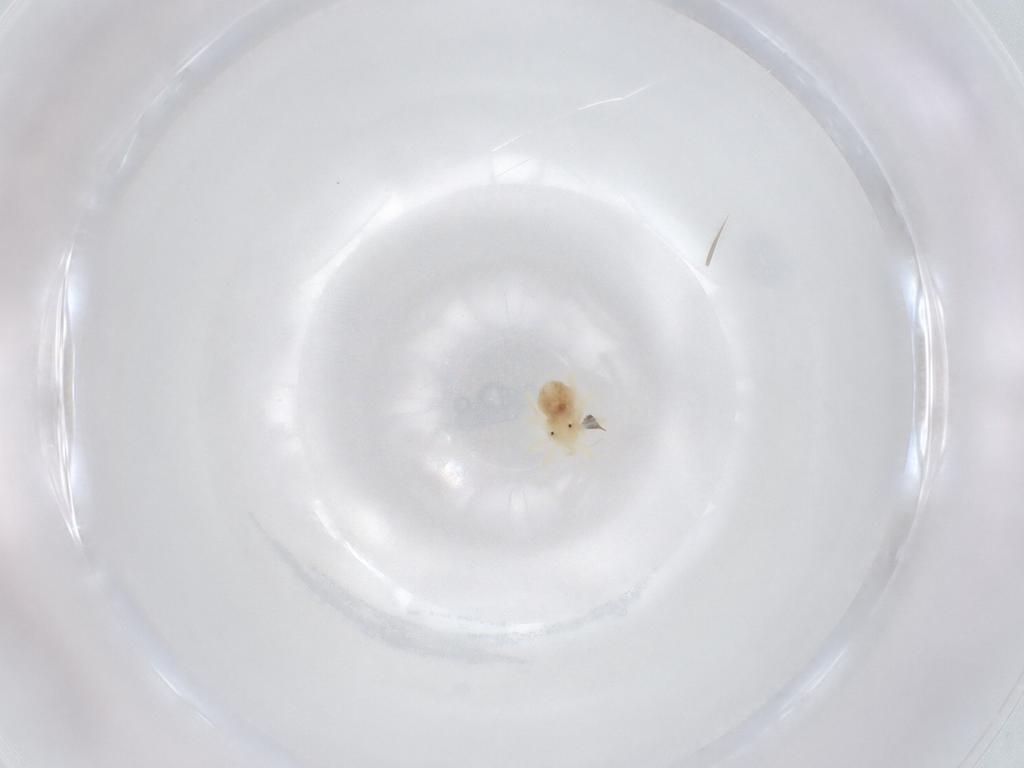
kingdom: Animalia
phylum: Arthropoda
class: Arachnida
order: Trombidiformes
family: Anystidae
